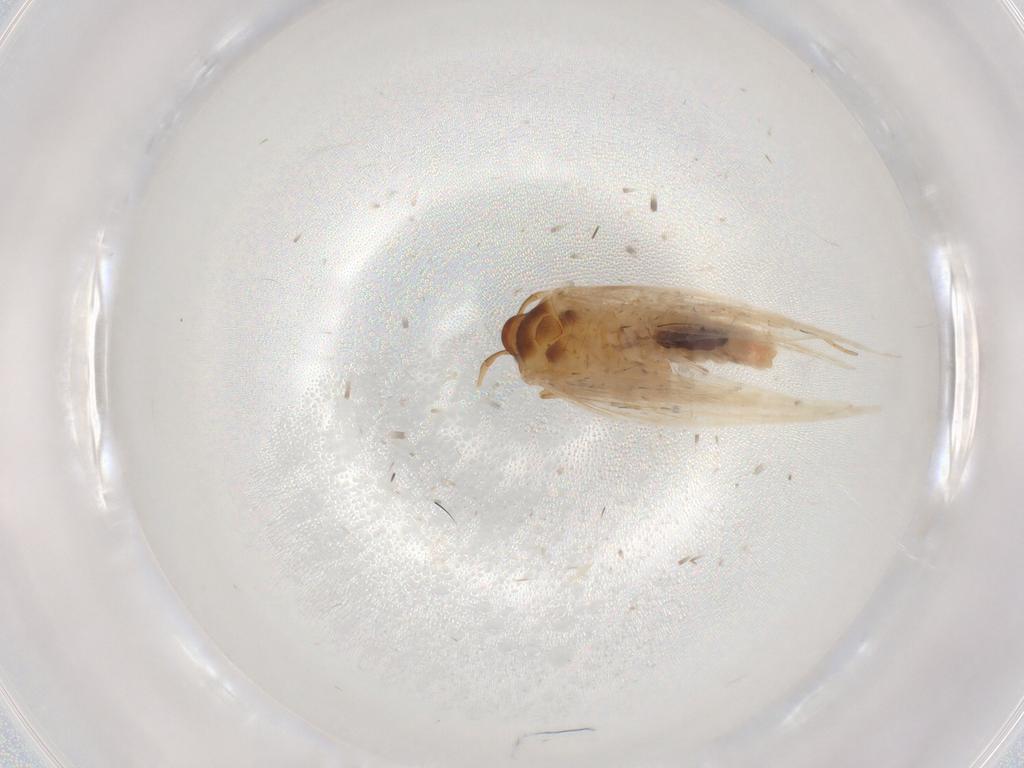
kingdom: Animalia
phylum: Arthropoda
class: Insecta
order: Lepidoptera
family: Gelechiidae
